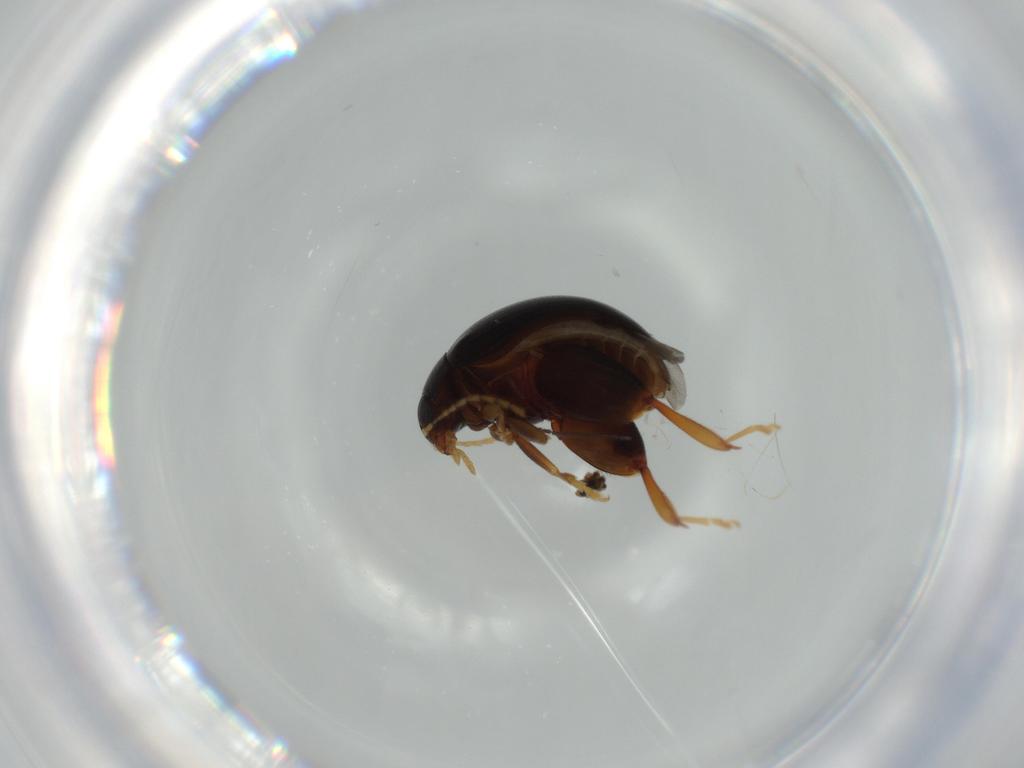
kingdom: Animalia
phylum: Arthropoda
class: Insecta
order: Coleoptera
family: Chrysomelidae
